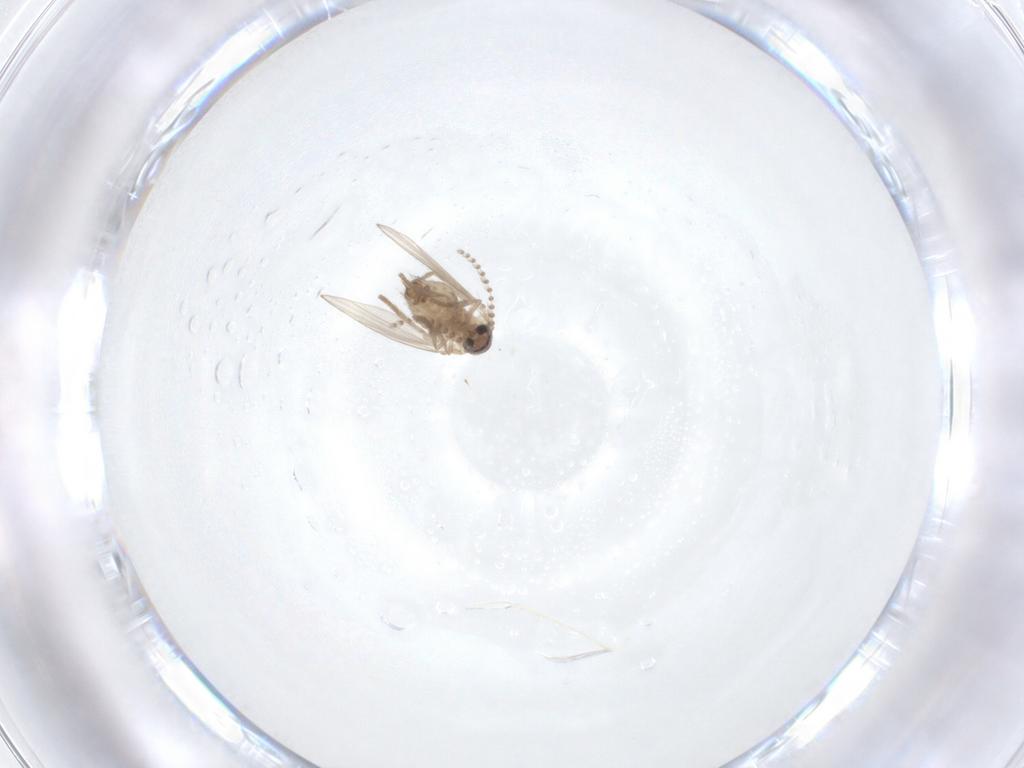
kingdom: Animalia
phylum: Arthropoda
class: Insecta
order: Diptera
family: Psychodidae
